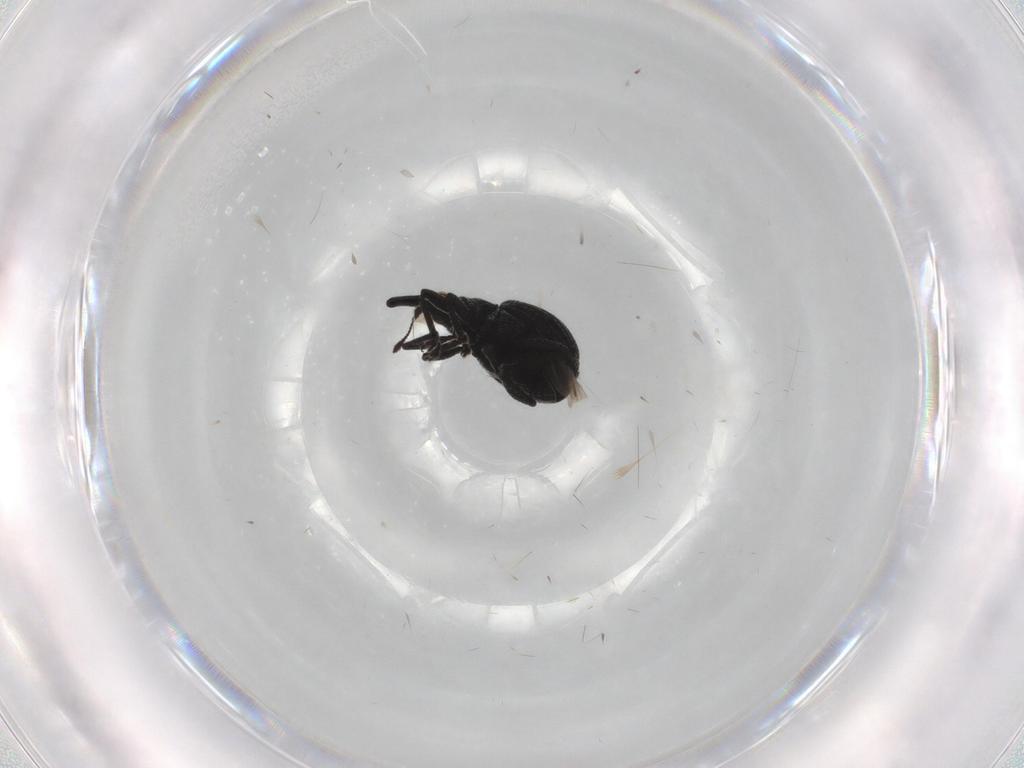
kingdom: Animalia
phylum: Arthropoda
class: Insecta
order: Coleoptera
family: Brentidae
